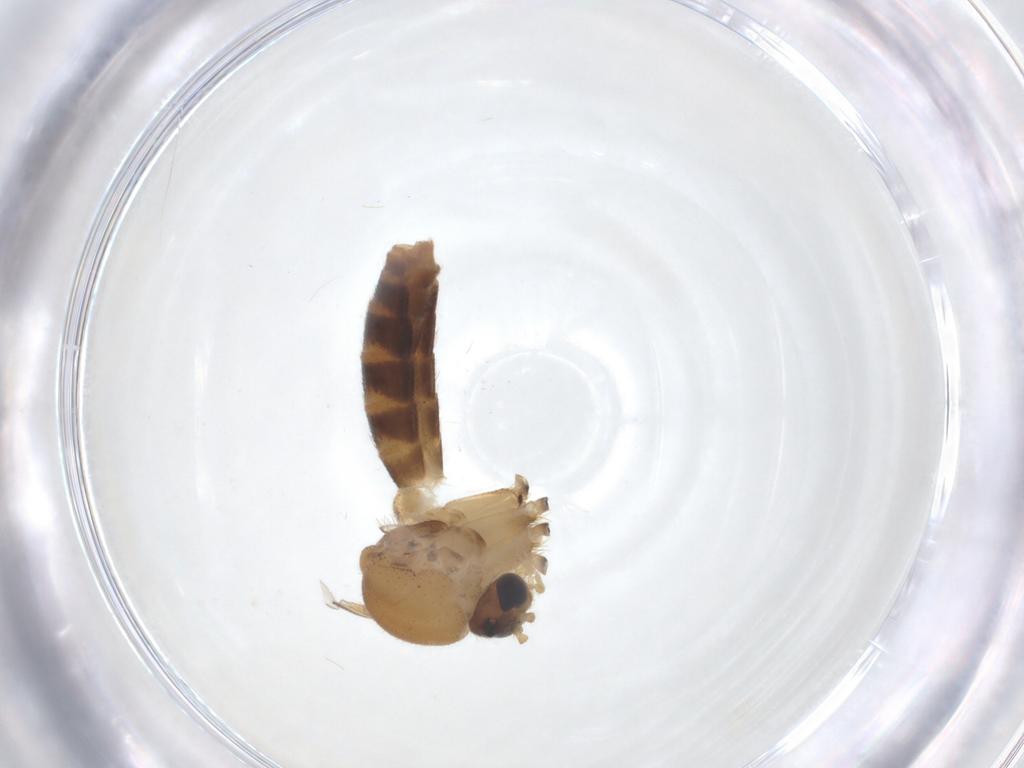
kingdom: Animalia
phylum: Arthropoda
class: Insecta
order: Diptera
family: Mycetophilidae
